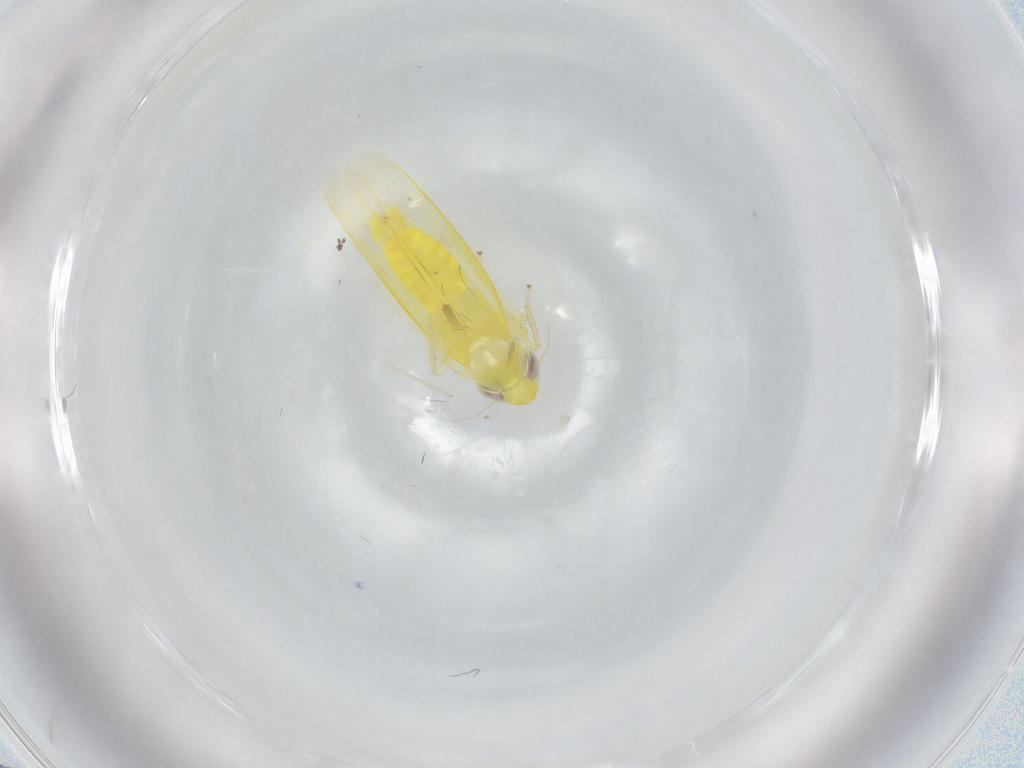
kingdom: Animalia
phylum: Arthropoda
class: Insecta
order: Hemiptera
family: Cicadellidae
